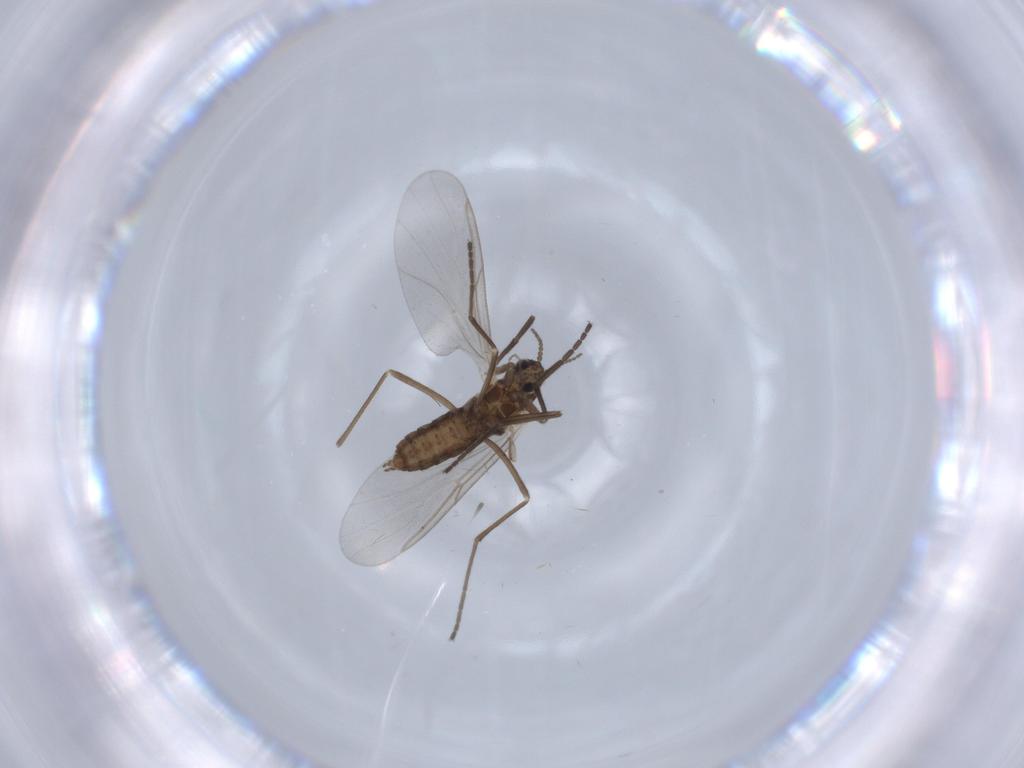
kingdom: Animalia
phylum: Arthropoda
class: Insecta
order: Diptera
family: Cecidomyiidae
